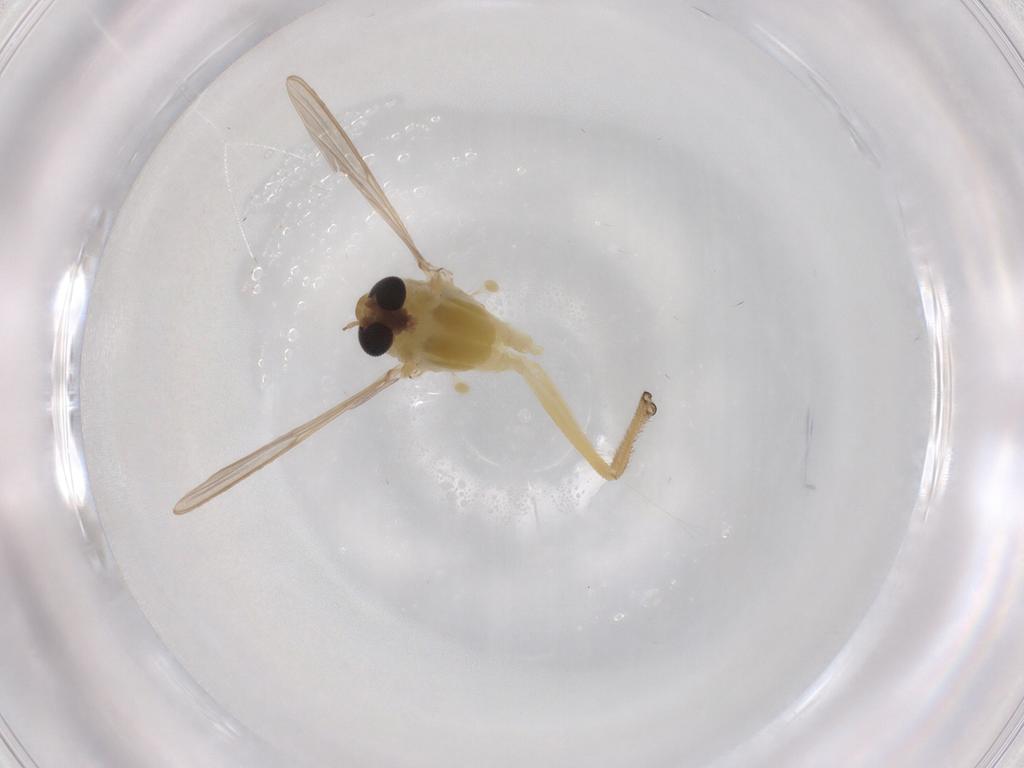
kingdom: Animalia
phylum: Arthropoda
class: Insecta
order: Diptera
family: Chironomidae
